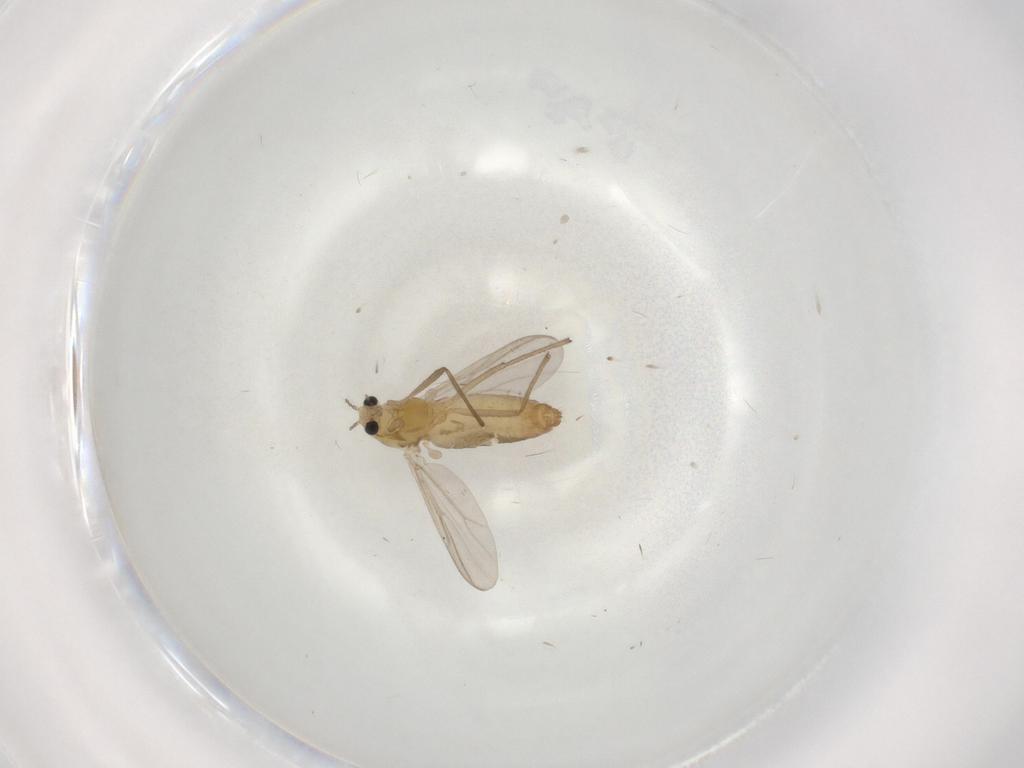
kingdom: Animalia
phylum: Arthropoda
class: Insecta
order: Diptera
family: Chironomidae
